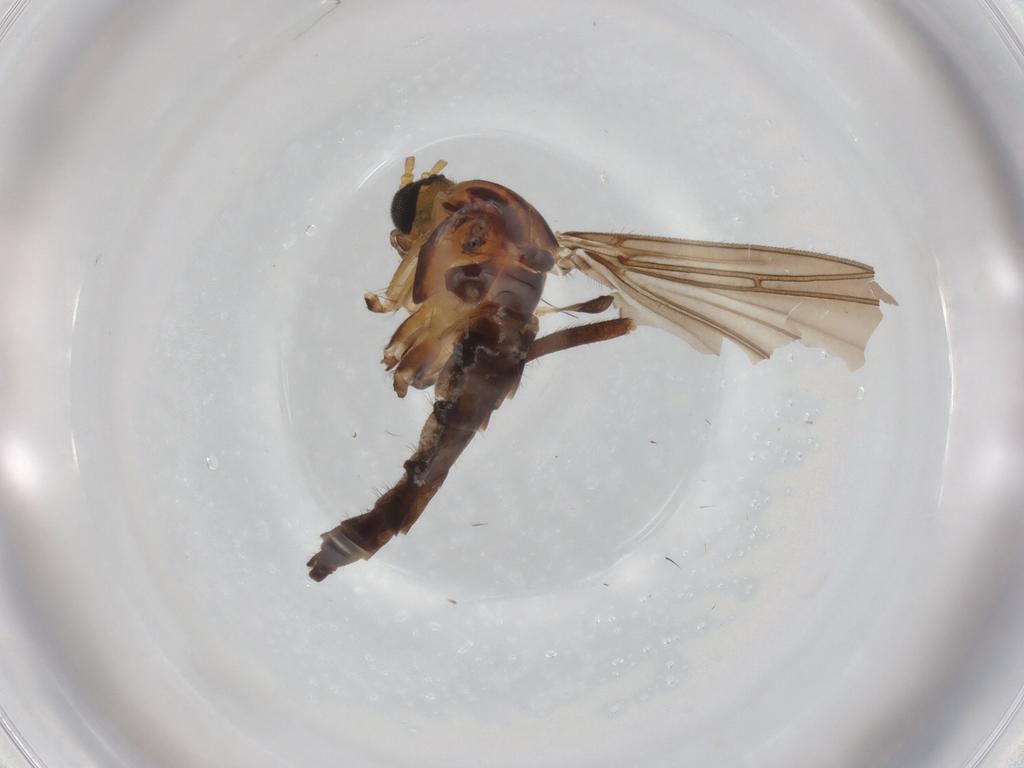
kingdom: Animalia
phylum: Arthropoda
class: Insecta
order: Diptera
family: Sciaridae
